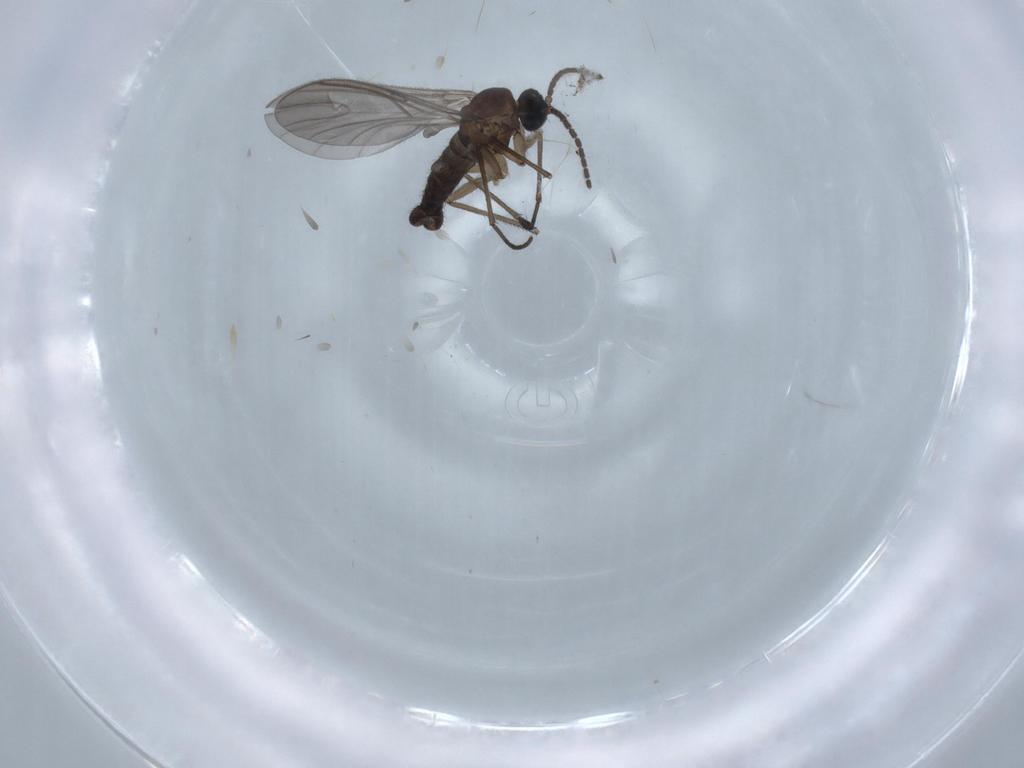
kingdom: Animalia
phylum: Arthropoda
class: Insecta
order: Diptera
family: Sciaridae
